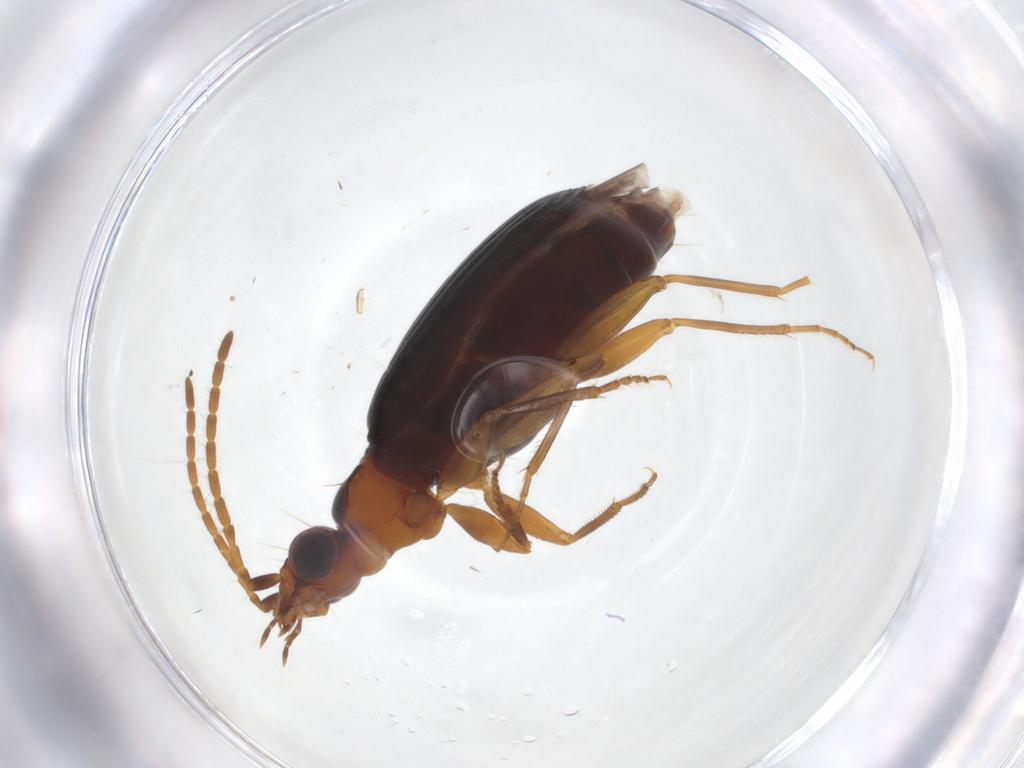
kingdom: Animalia
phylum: Arthropoda
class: Insecta
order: Coleoptera
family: Carabidae
